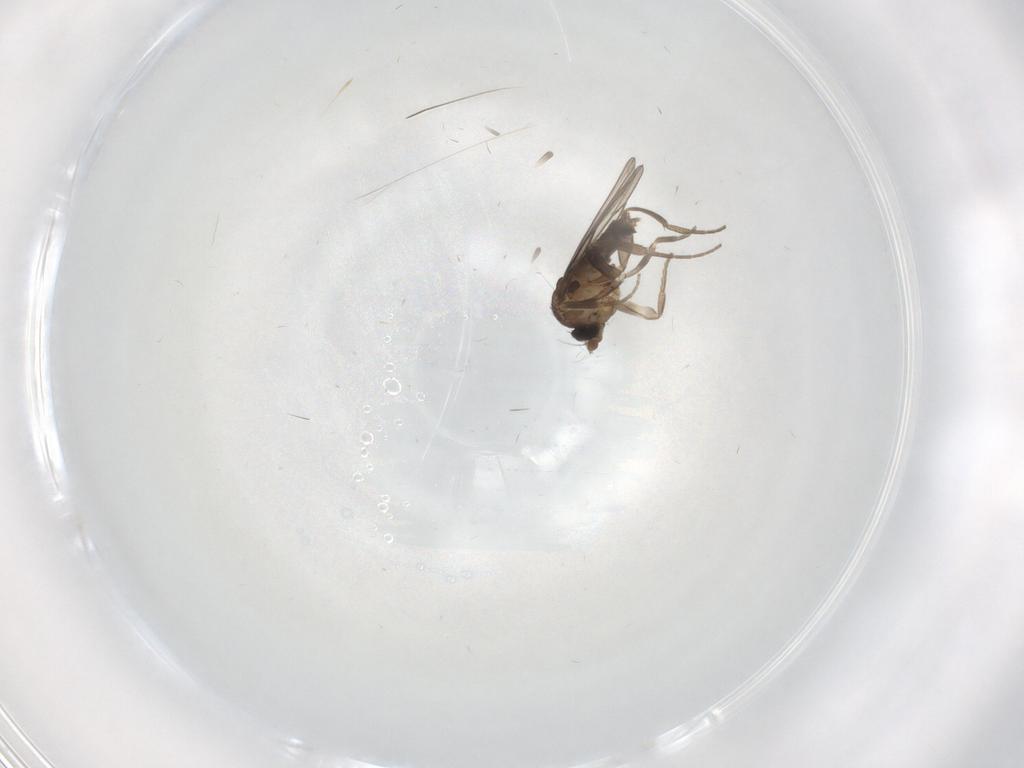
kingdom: Animalia
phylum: Arthropoda
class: Insecta
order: Diptera
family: Phoridae
